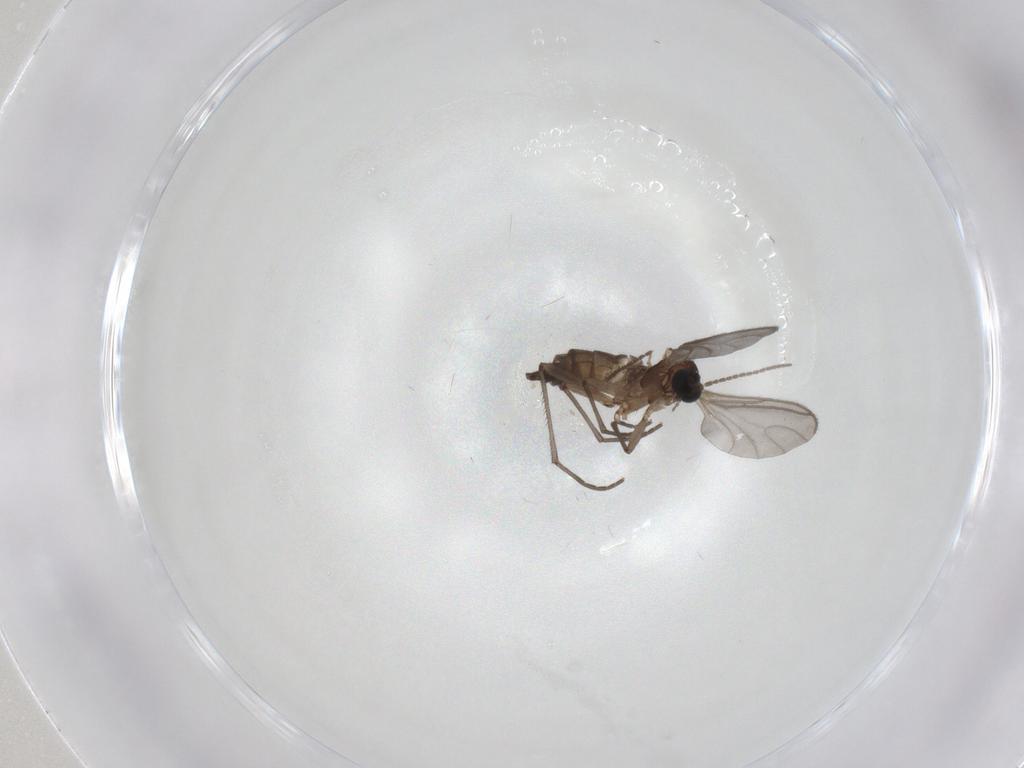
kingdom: Animalia
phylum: Arthropoda
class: Insecta
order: Diptera
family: Sciaridae
